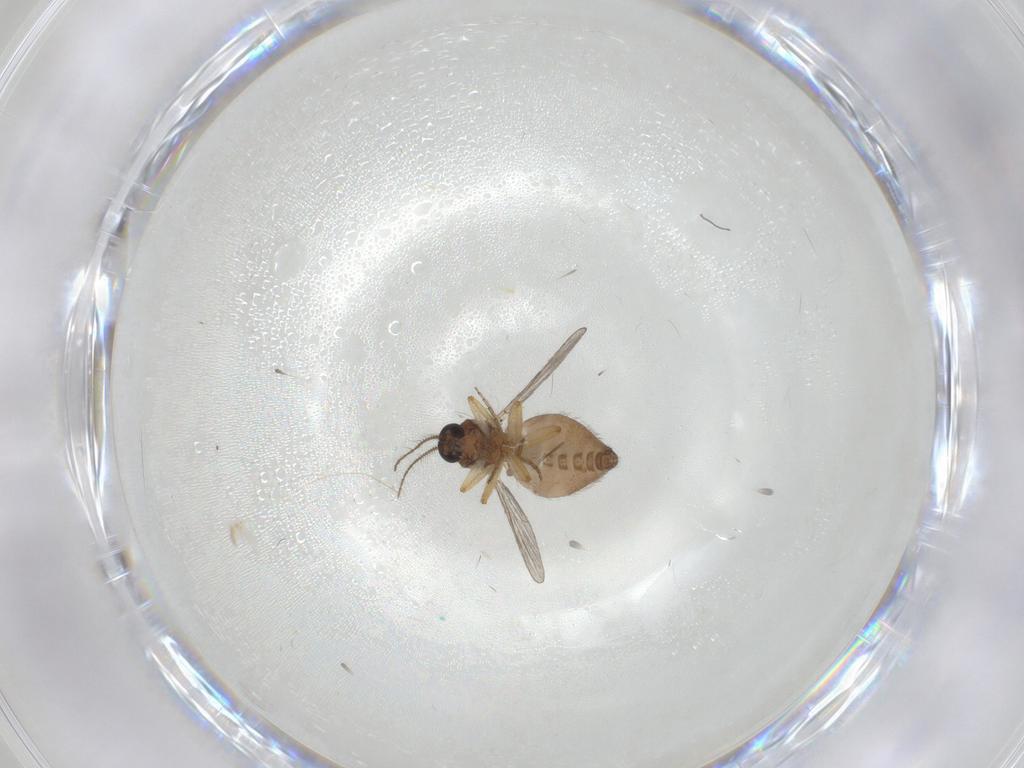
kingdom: Animalia
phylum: Arthropoda
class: Insecta
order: Diptera
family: Ceratopogonidae
